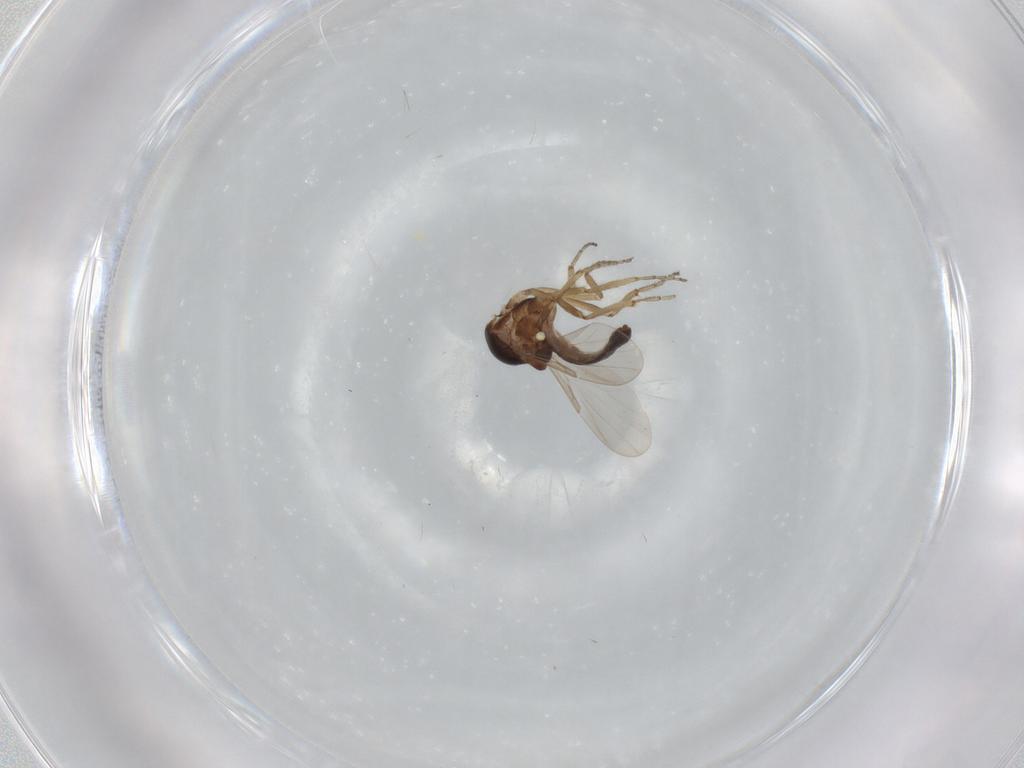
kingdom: Animalia
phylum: Arthropoda
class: Insecta
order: Diptera
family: Ceratopogonidae
